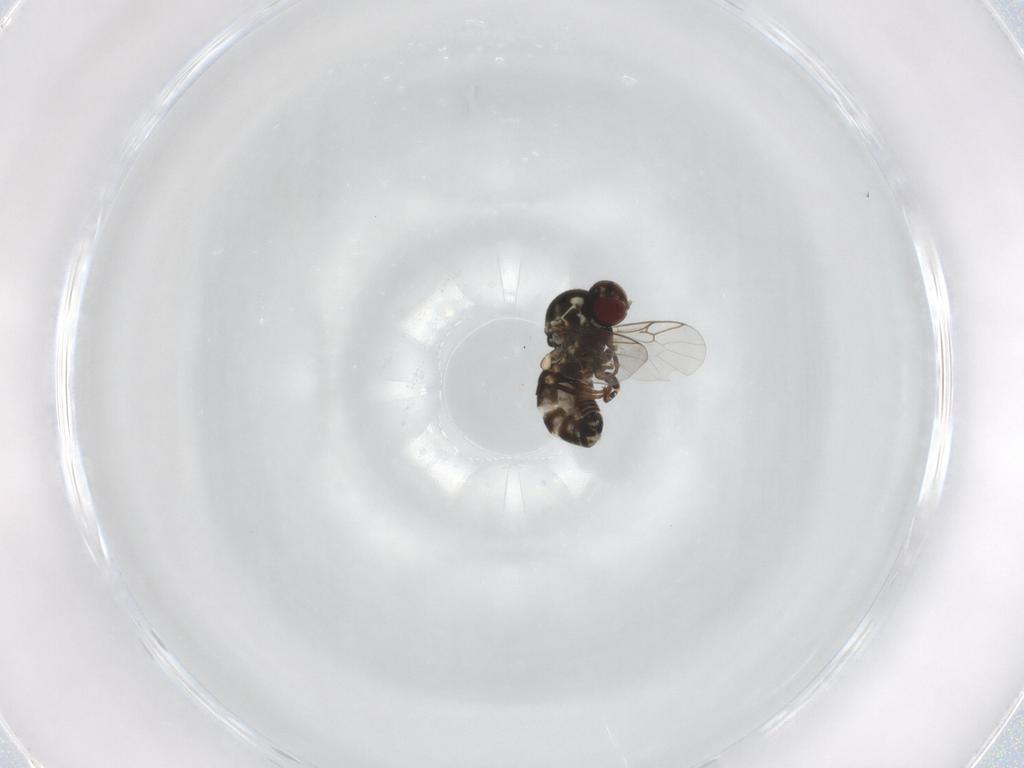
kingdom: Animalia
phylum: Arthropoda
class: Insecta
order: Diptera
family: Bombyliidae
